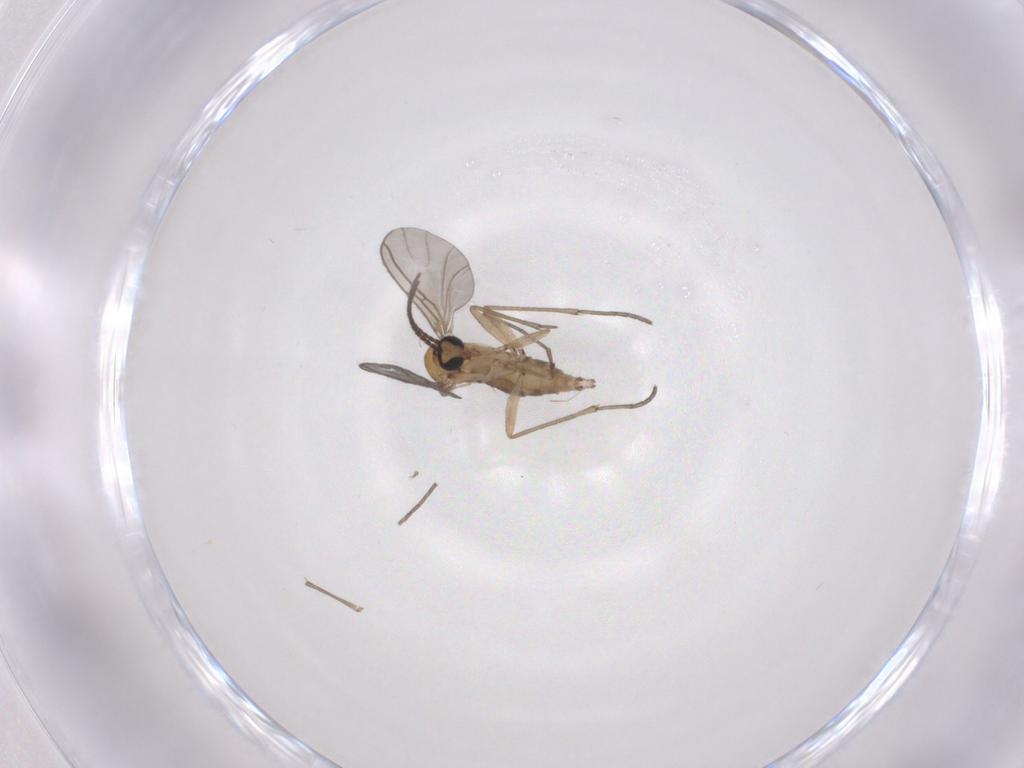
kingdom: Animalia
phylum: Arthropoda
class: Insecta
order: Diptera
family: Sciaridae
